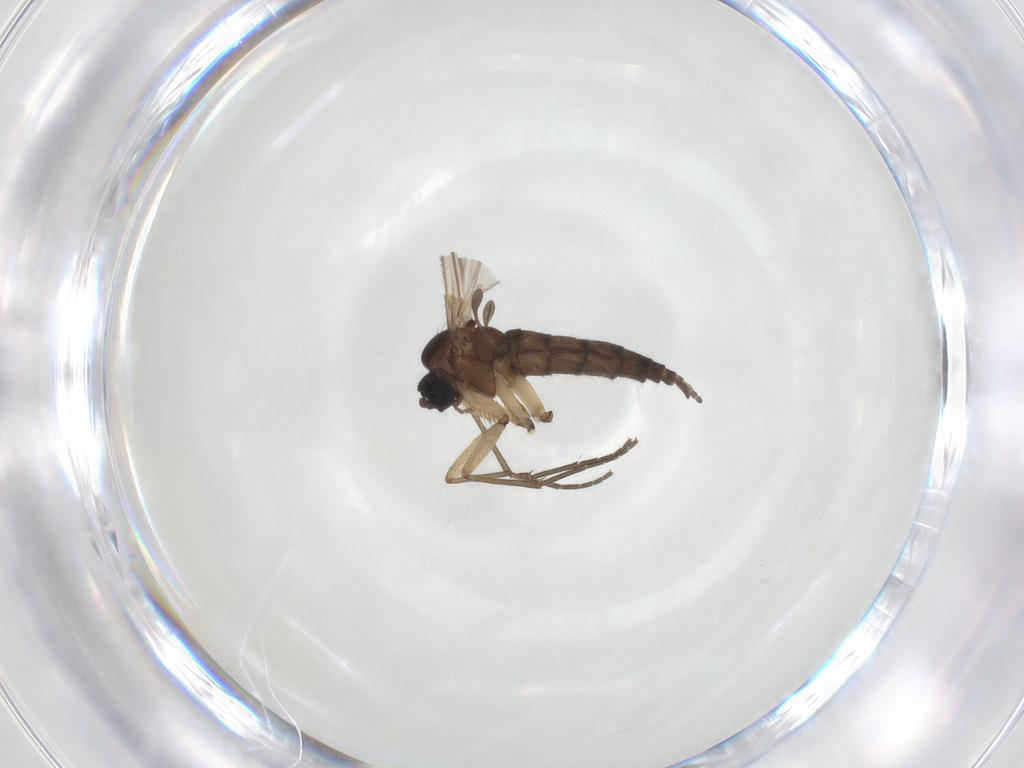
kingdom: Animalia
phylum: Arthropoda
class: Insecta
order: Diptera
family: Sciaridae
